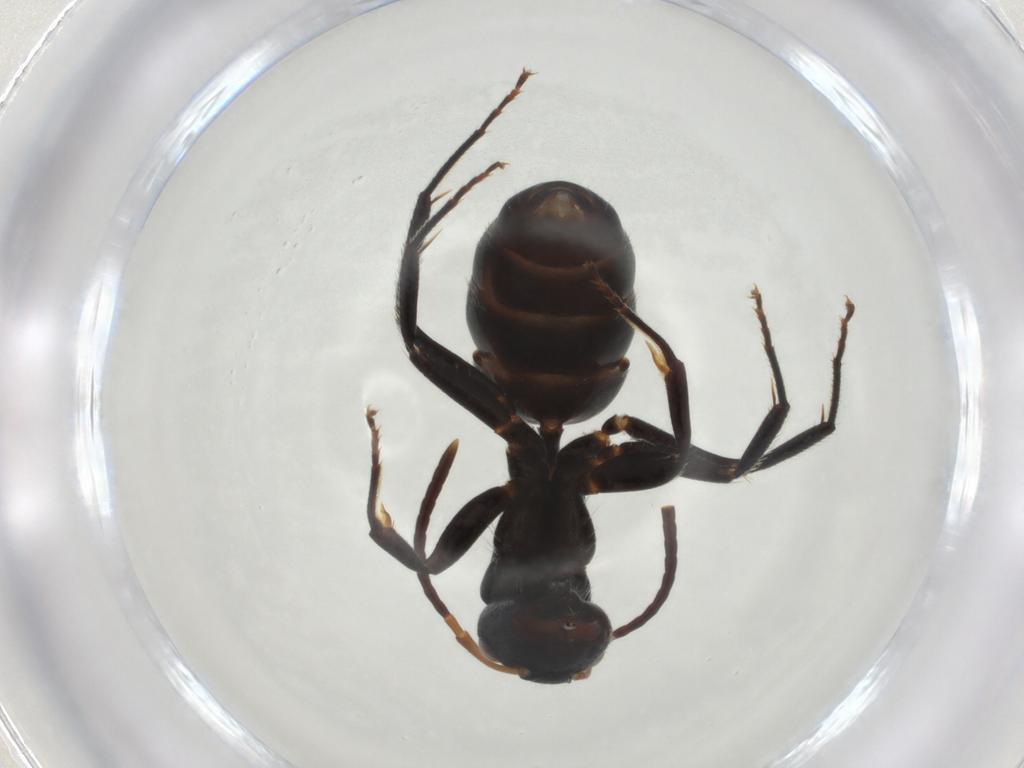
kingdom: Animalia
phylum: Arthropoda
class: Insecta
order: Hymenoptera
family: Formicidae
